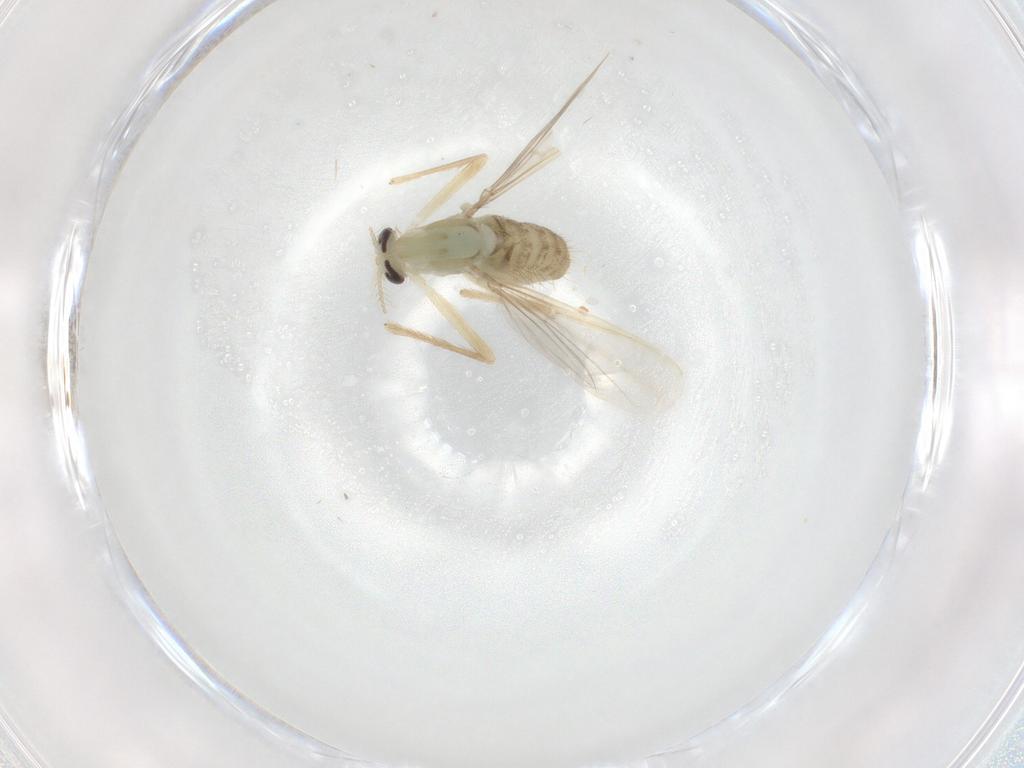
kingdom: Animalia
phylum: Arthropoda
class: Insecta
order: Diptera
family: Chironomidae
